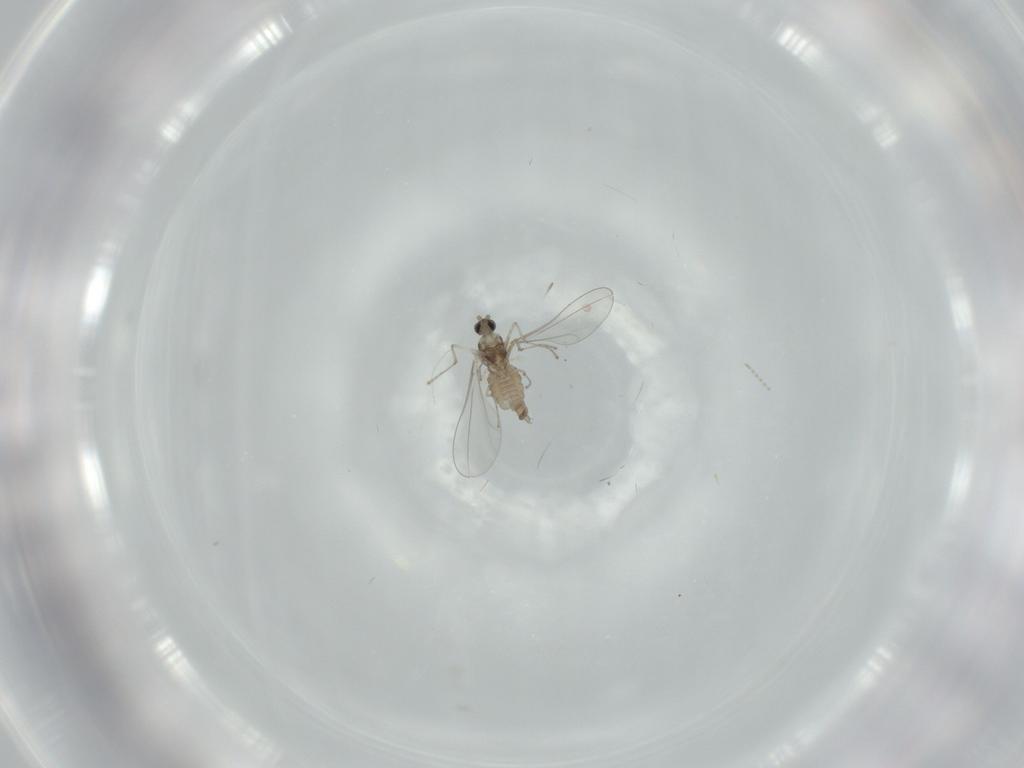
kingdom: Animalia
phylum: Arthropoda
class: Insecta
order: Diptera
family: Cecidomyiidae
